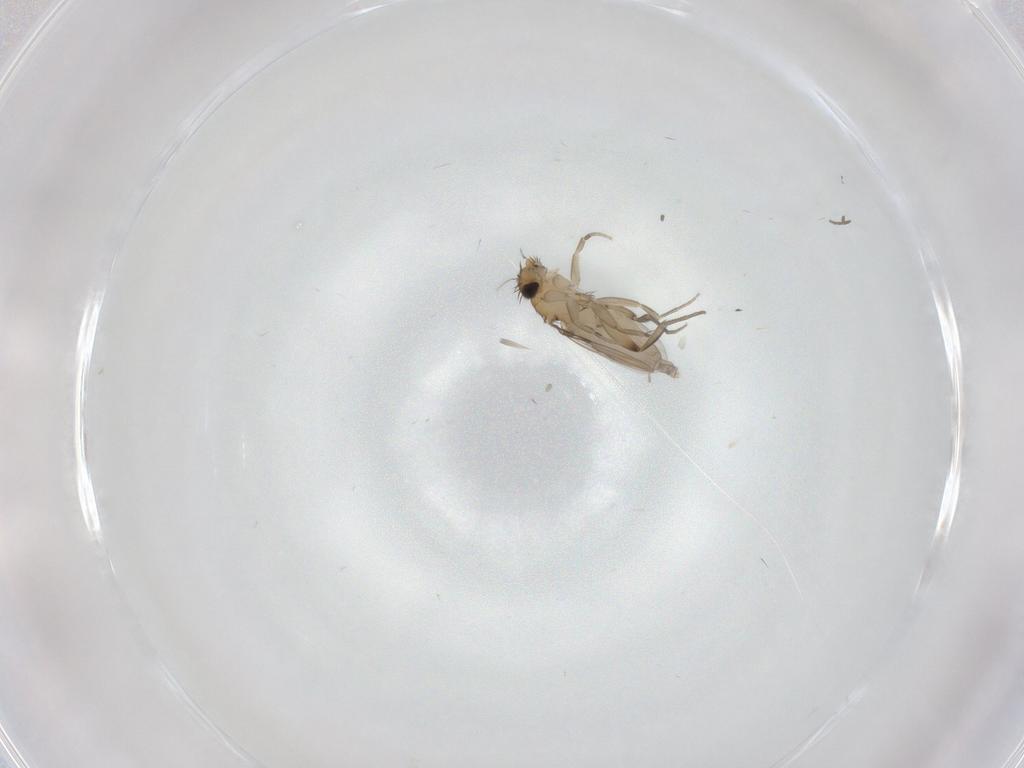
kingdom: Animalia
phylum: Arthropoda
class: Insecta
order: Diptera
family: Phoridae
